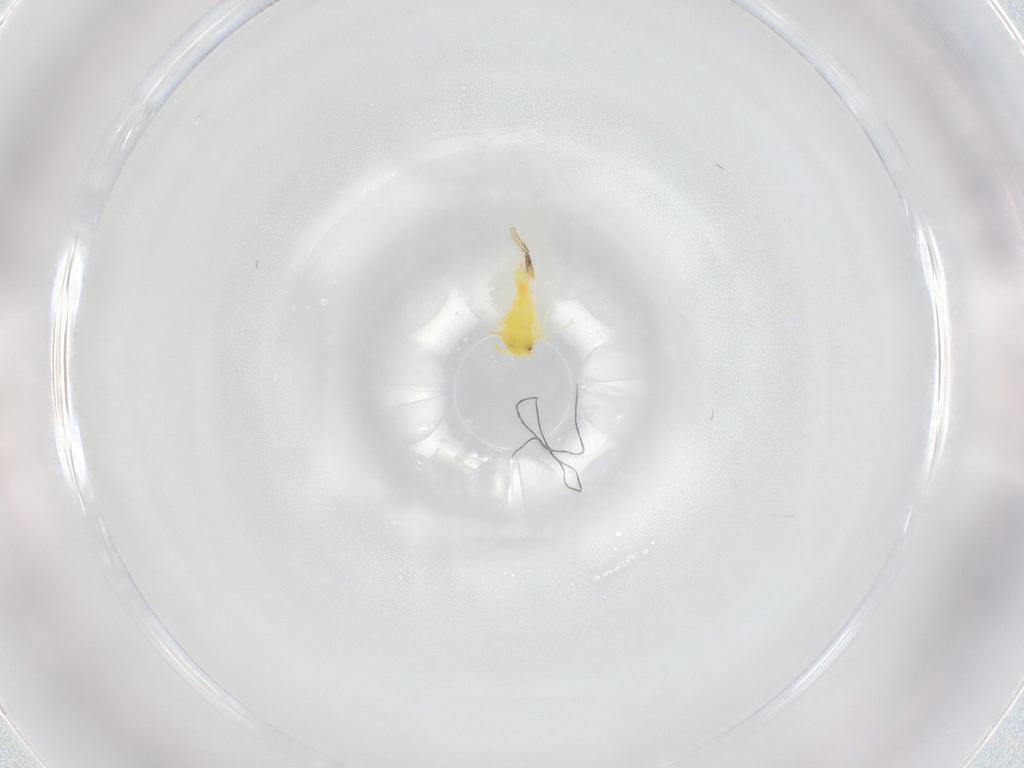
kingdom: Animalia
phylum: Arthropoda
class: Insecta
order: Hemiptera
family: Aleyrodidae
